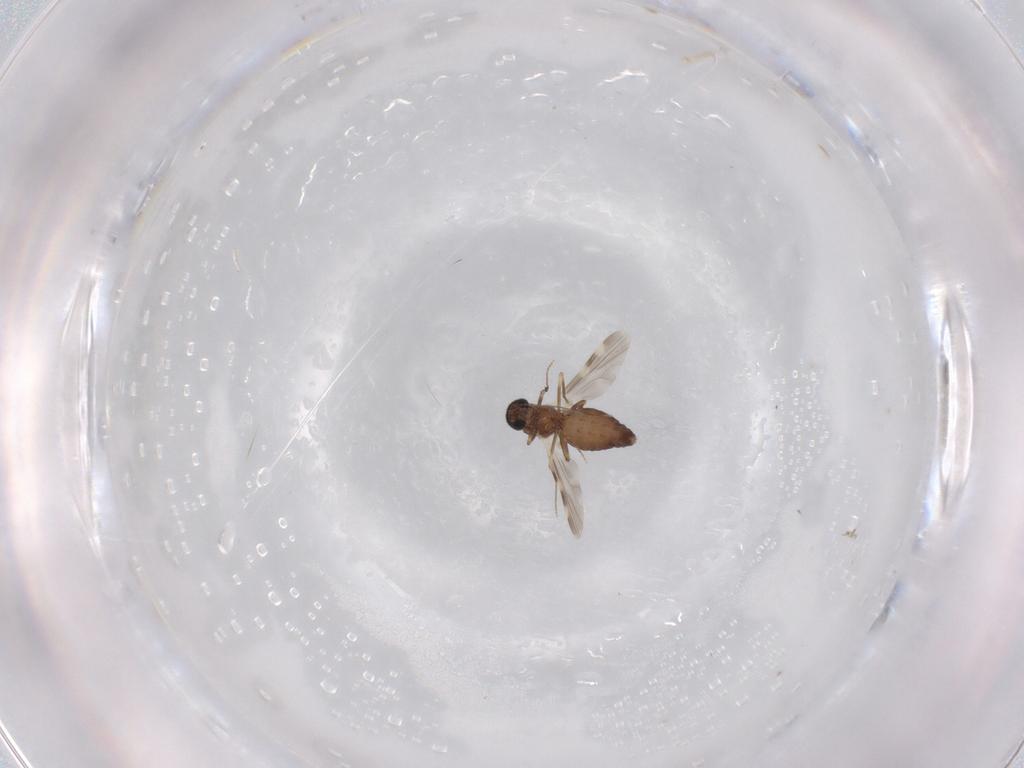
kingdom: Animalia
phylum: Arthropoda
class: Insecta
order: Diptera
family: Ceratopogonidae
